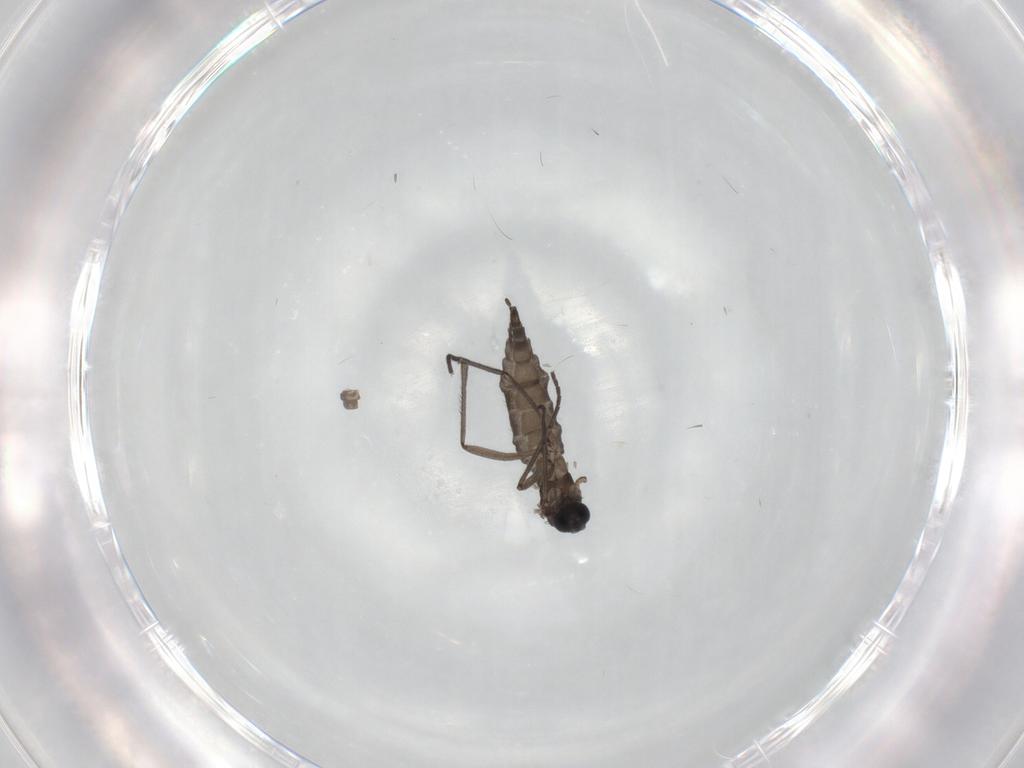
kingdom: Animalia
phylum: Arthropoda
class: Insecta
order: Diptera
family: Sciaridae
